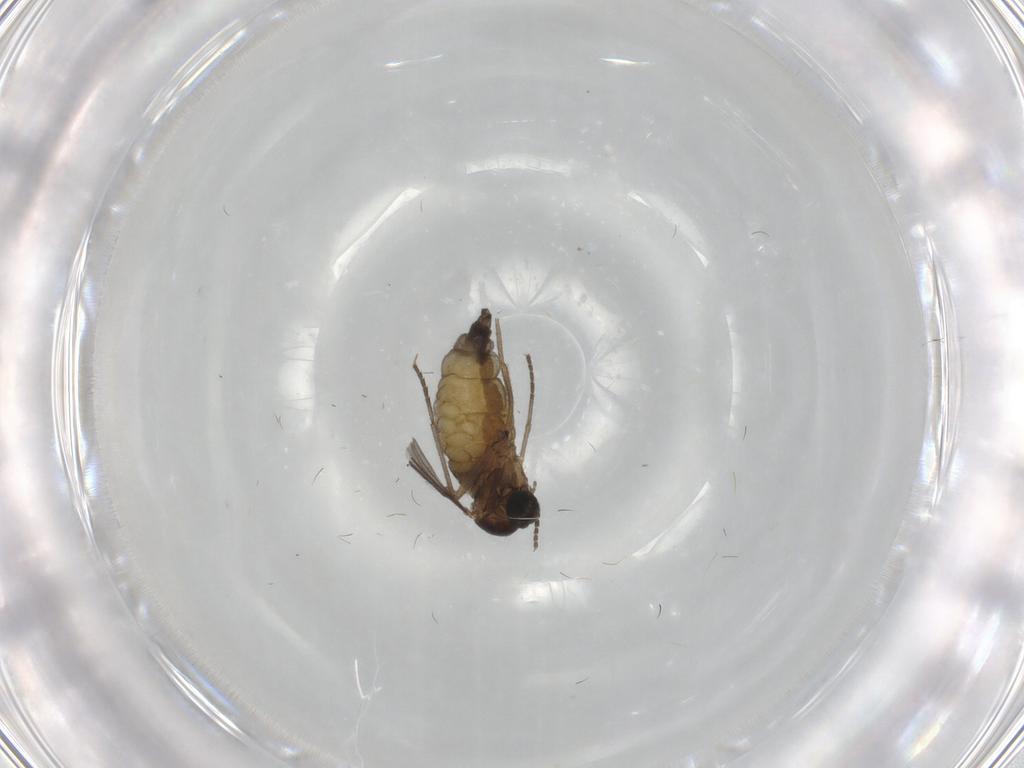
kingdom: Animalia
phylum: Arthropoda
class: Insecta
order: Diptera
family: Sciaridae
